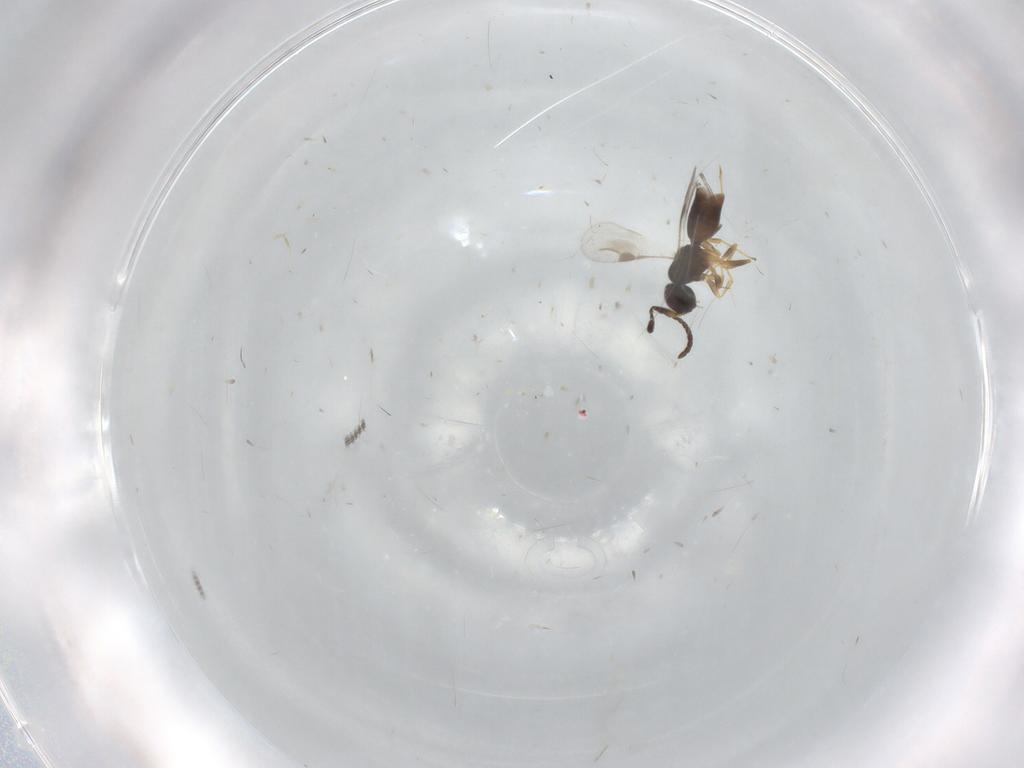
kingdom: Animalia
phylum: Arthropoda
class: Insecta
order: Hymenoptera
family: Megaspilidae
